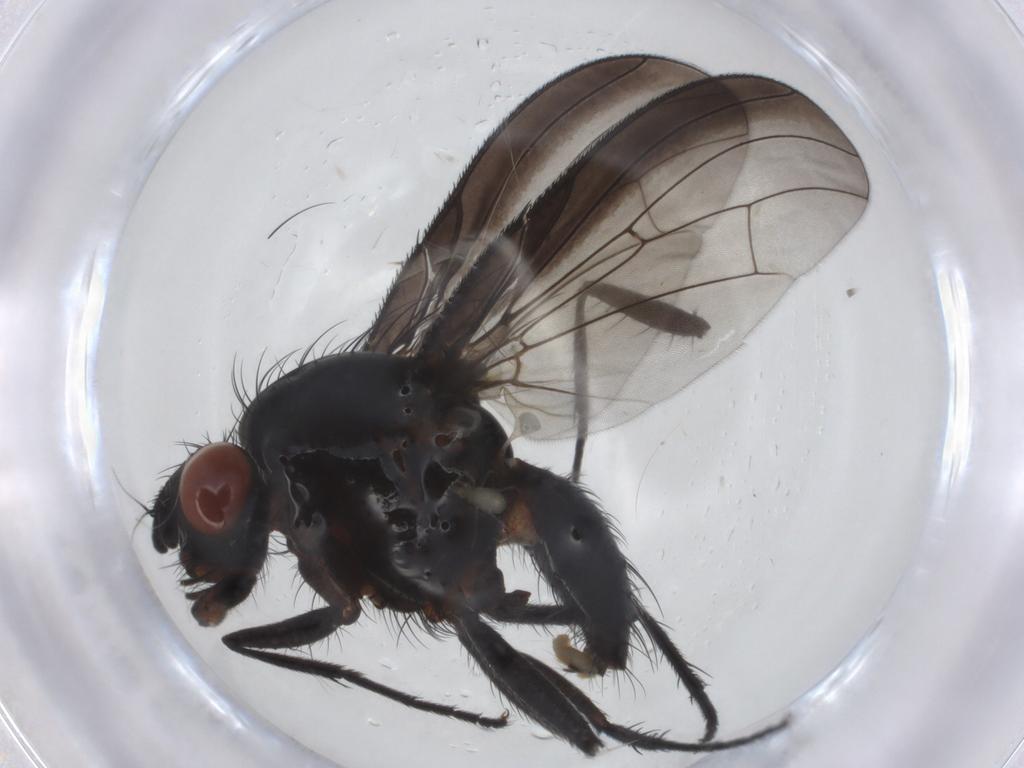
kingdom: Animalia
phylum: Arthropoda
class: Insecta
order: Diptera
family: Anthomyiidae
